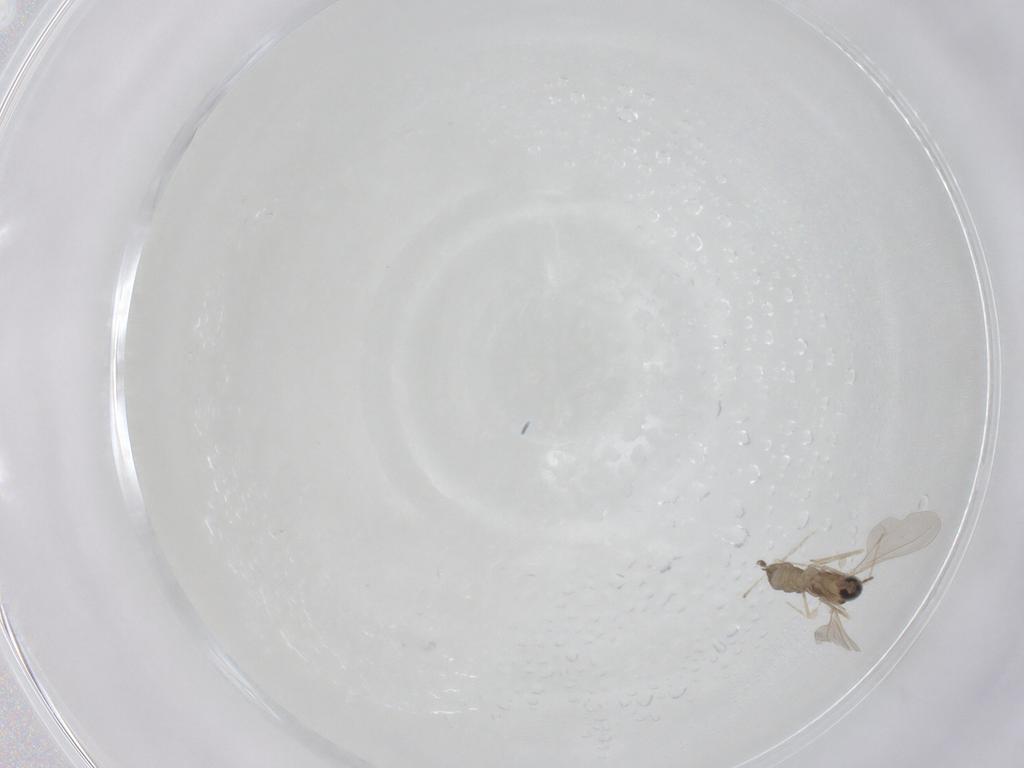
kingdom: Animalia
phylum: Arthropoda
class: Insecta
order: Diptera
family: Cecidomyiidae
